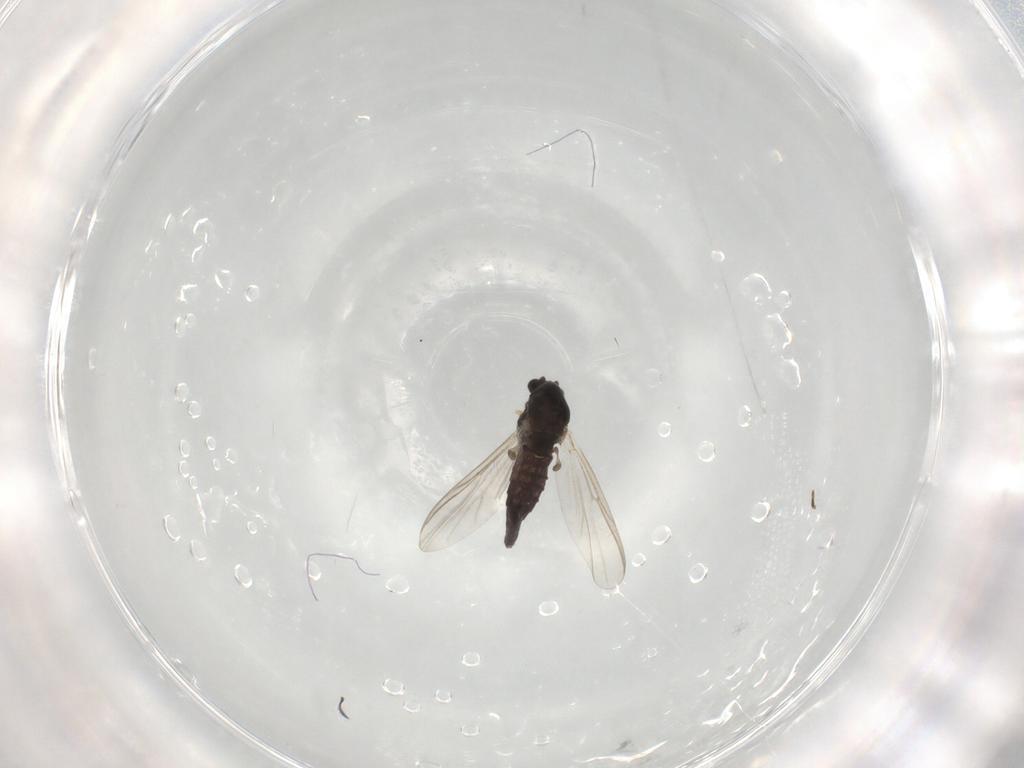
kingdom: Animalia
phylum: Arthropoda
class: Insecta
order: Diptera
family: Chironomidae
